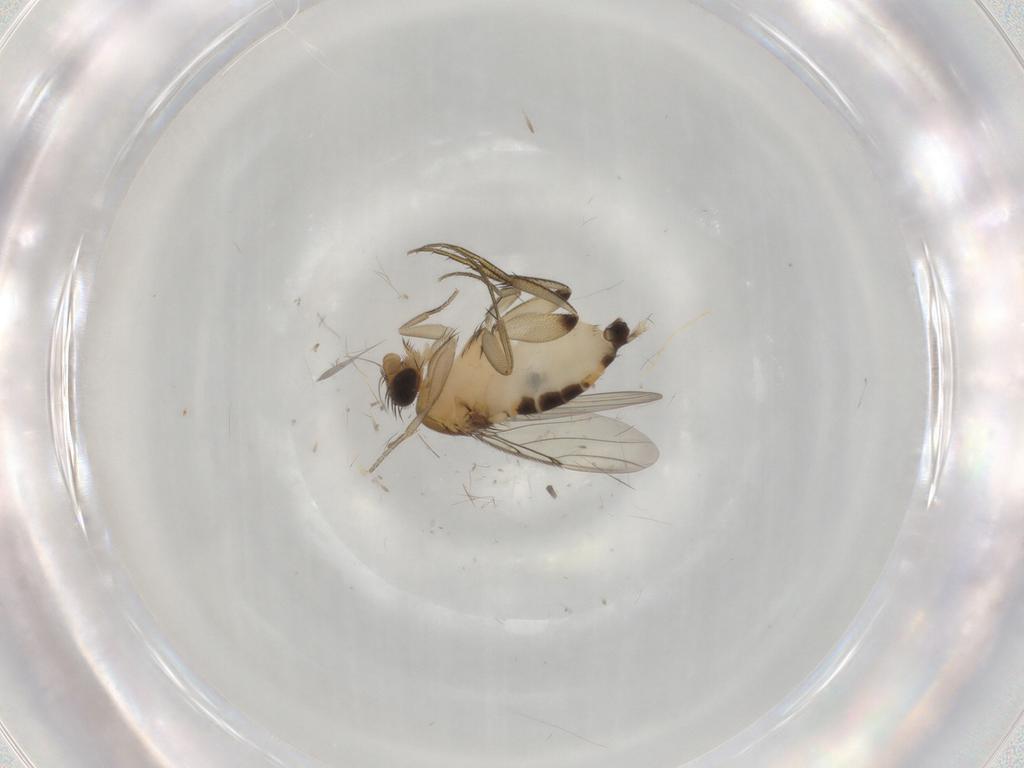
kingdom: Animalia
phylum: Arthropoda
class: Insecta
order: Diptera
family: Phoridae
